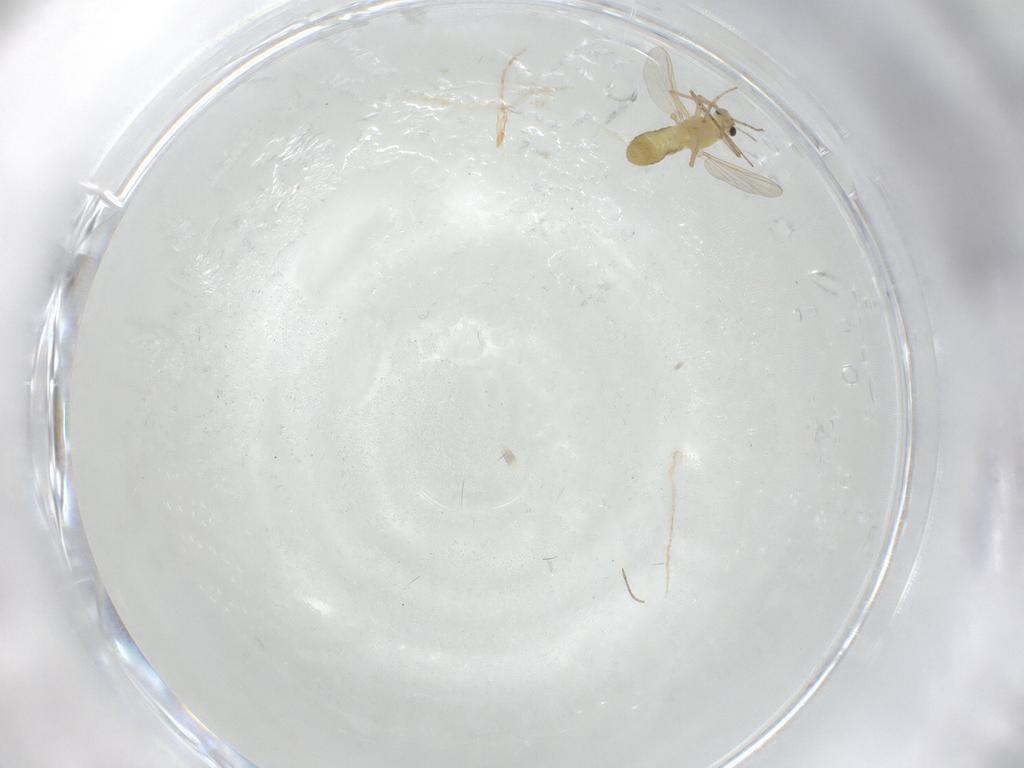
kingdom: Animalia
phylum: Arthropoda
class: Insecta
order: Diptera
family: Chironomidae
